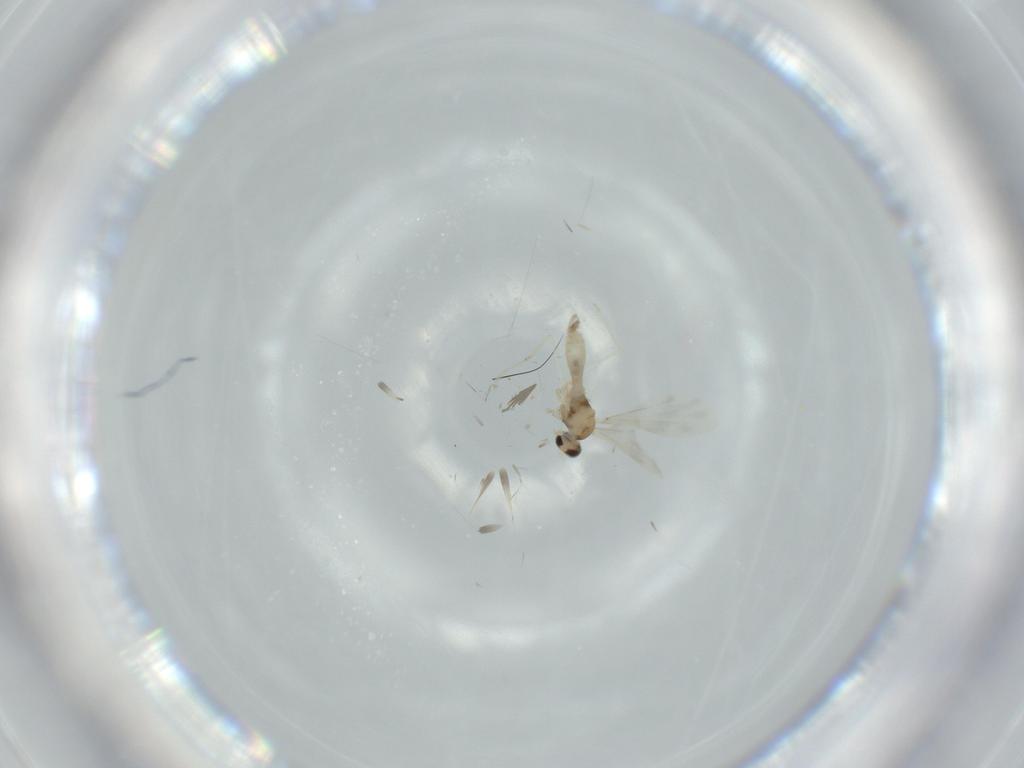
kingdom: Animalia
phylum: Arthropoda
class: Insecta
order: Diptera
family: Cecidomyiidae
